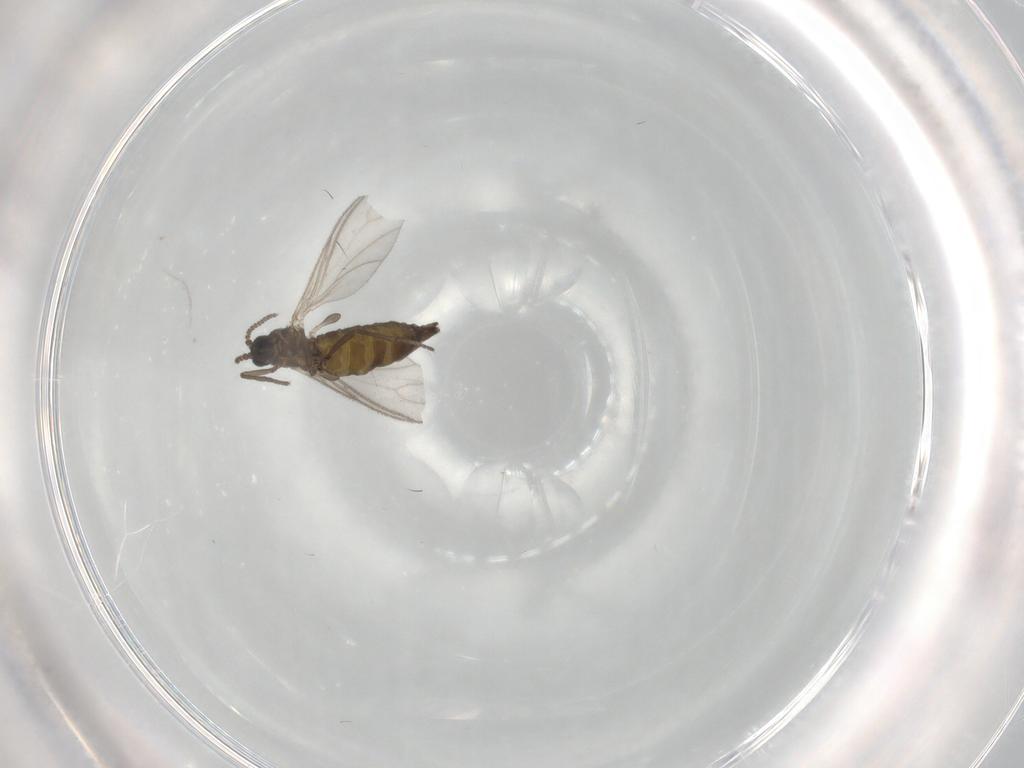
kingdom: Animalia
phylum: Arthropoda
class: Insecta
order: Diptera
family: Sciaridae
